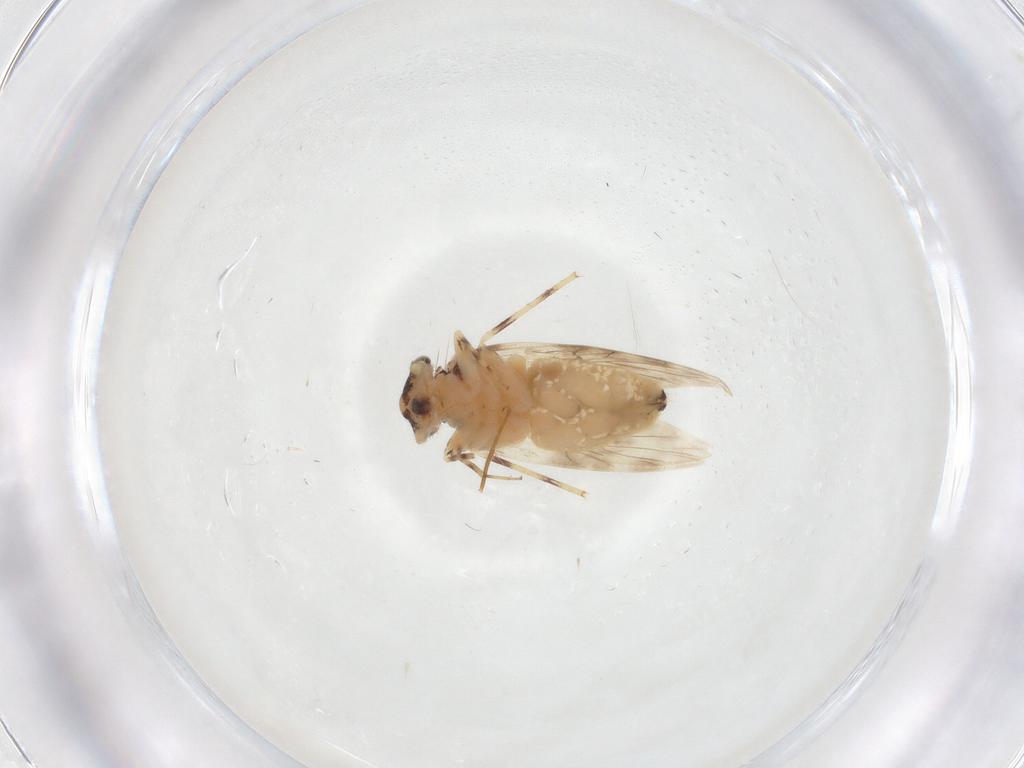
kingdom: Animalia
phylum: Arthropoda
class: Insecta
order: Psocodea
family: Lepidopsocidae
